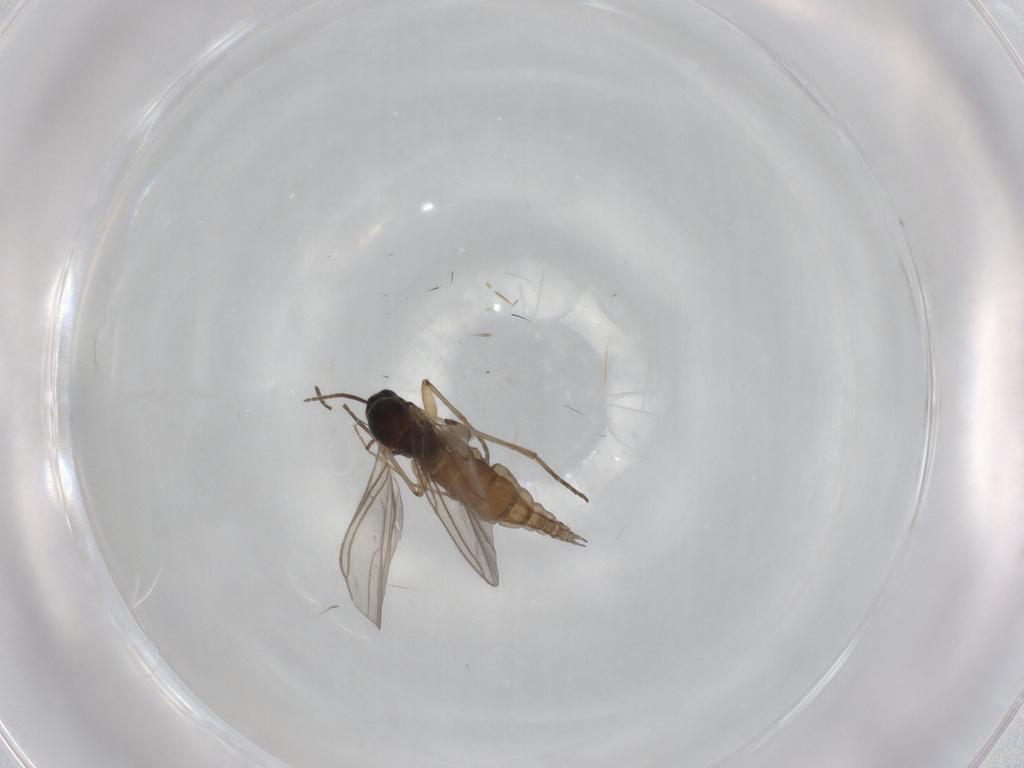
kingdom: Animalia
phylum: Arthropoda
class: Insecta
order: Diptera
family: Sciaridae
